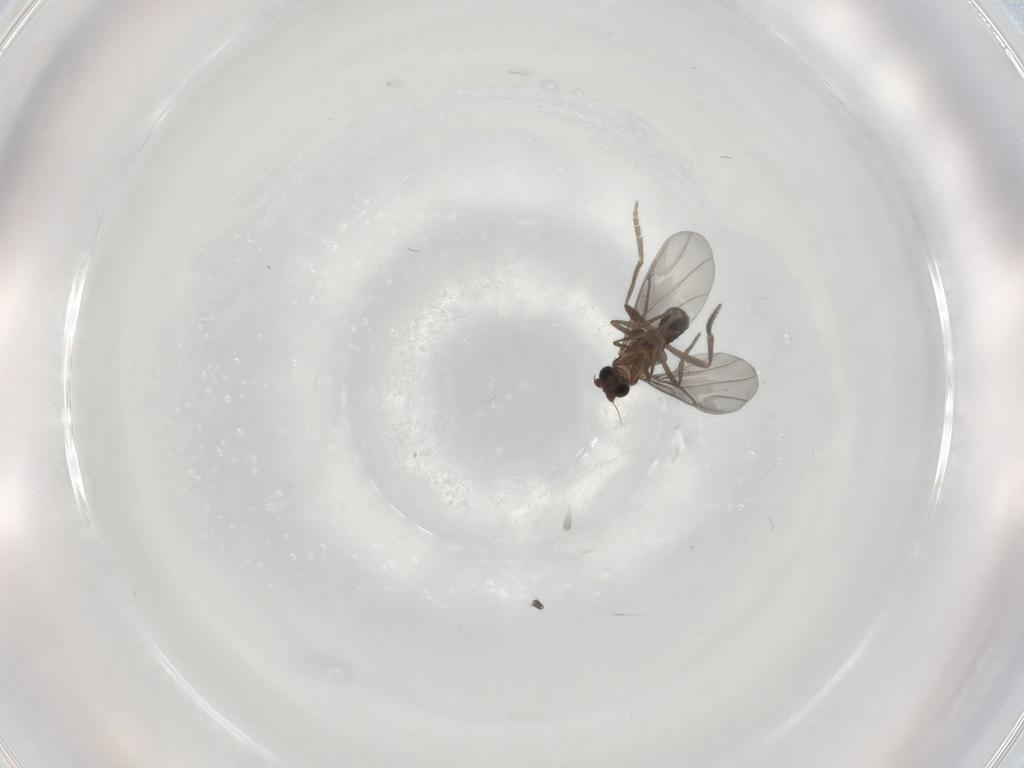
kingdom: Animalia
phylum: Arthropoda
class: Insecta
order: Diptera
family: Phoridae
